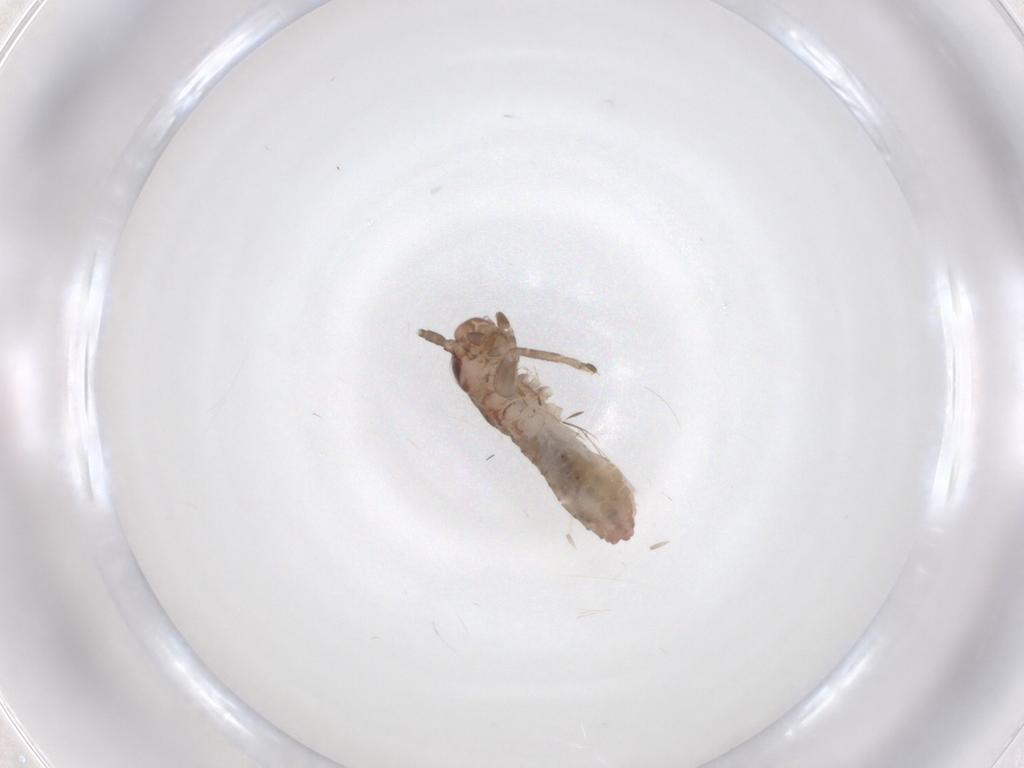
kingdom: Animalia
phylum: Arthropoda
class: Insecta
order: Orthoptera
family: Mogoplistidae
